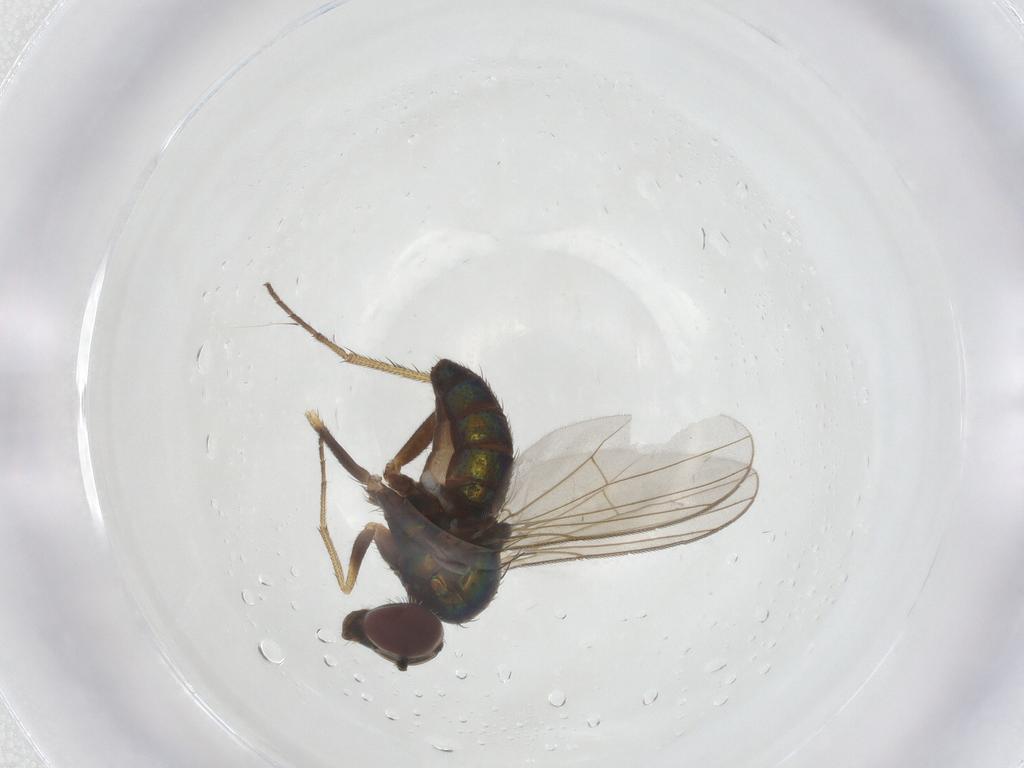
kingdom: Animalia
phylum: Arthropoda
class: Insecta
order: Diptera
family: Dolichopodidae
